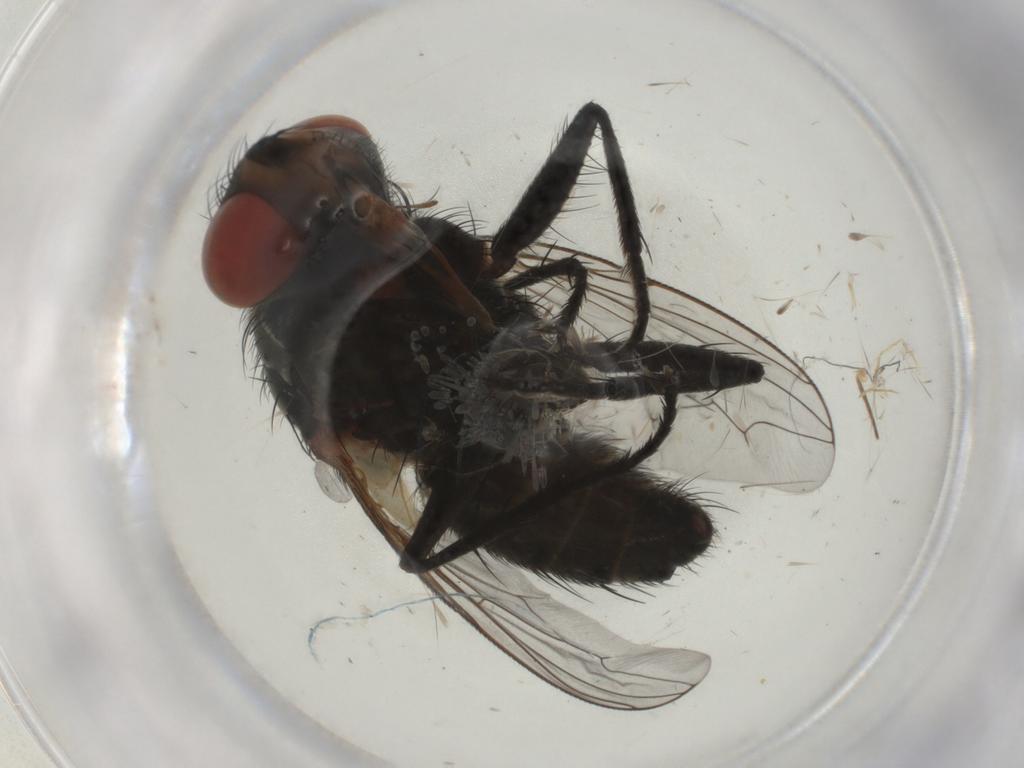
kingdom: Animalia
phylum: Arthropoda
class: Insecta
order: Diptera
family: Sarcophagidae
